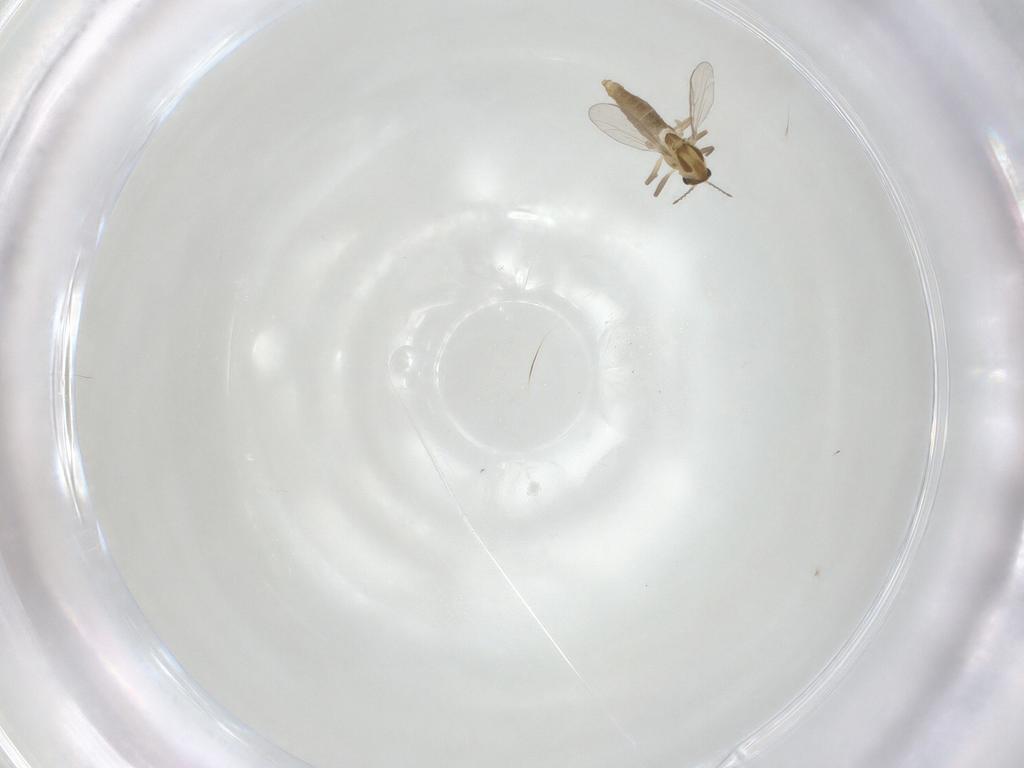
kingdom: Animalia
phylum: Arthropoda
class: Insecta
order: Diptera
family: Chironomidae
